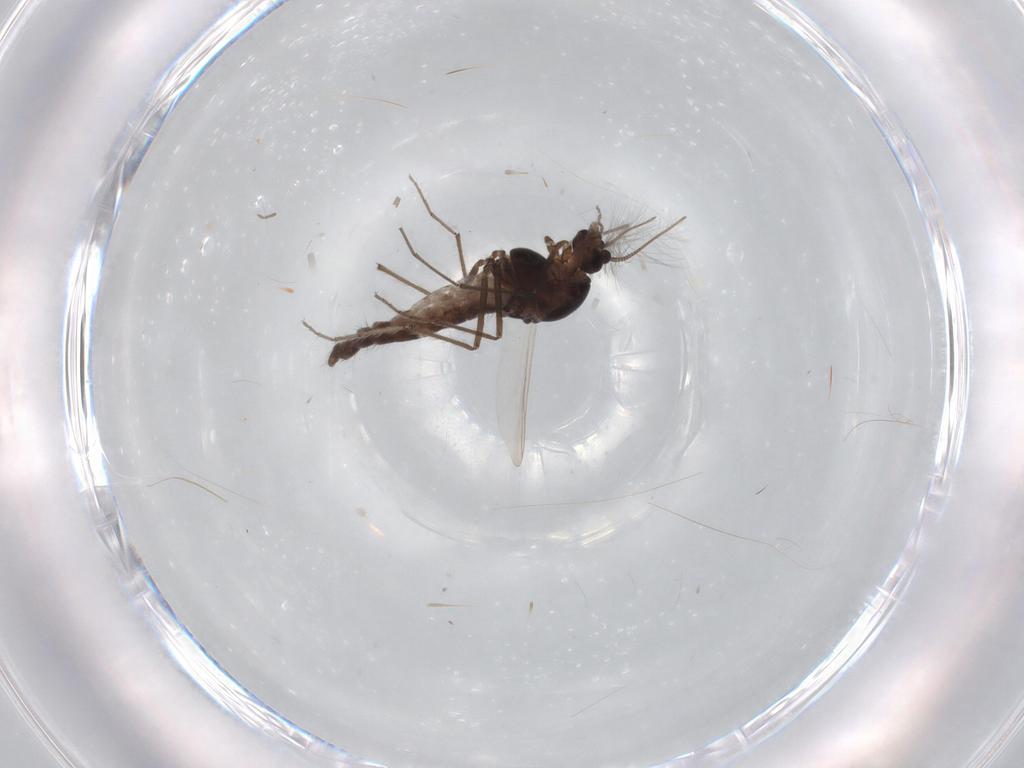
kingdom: Animalia
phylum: Arthropoda
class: Insecta
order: Diptera
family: Chironomidae
